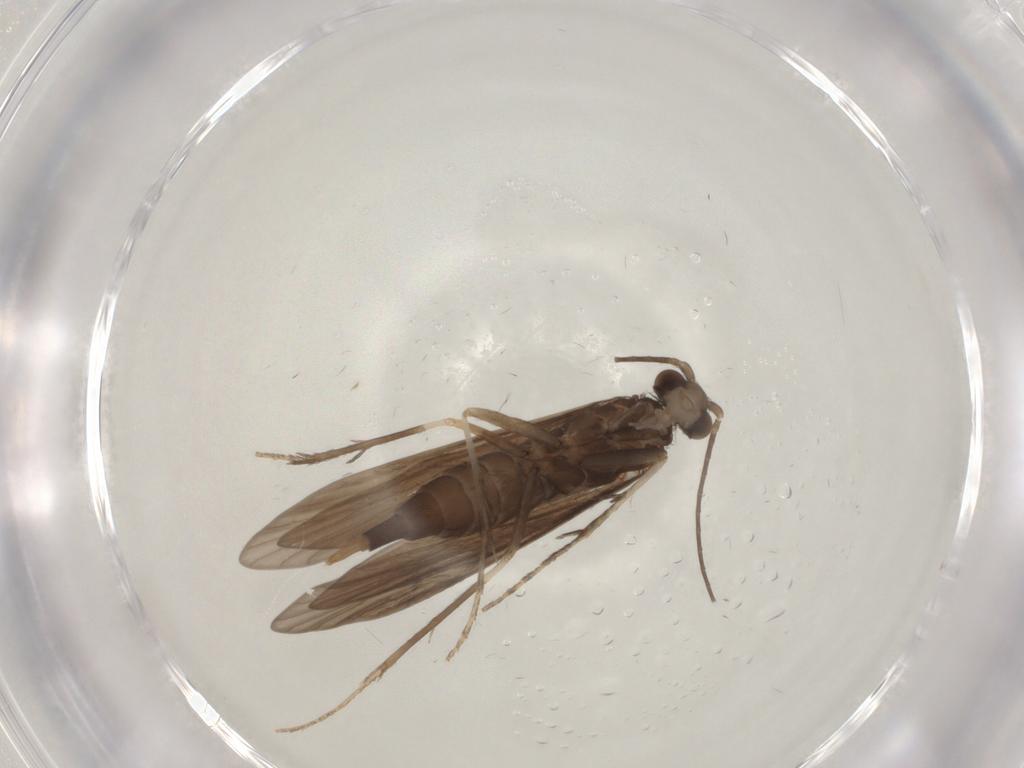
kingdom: Animalia
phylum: Arthropoda
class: Insecta
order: Trichoptera
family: Xiphocentronidae
